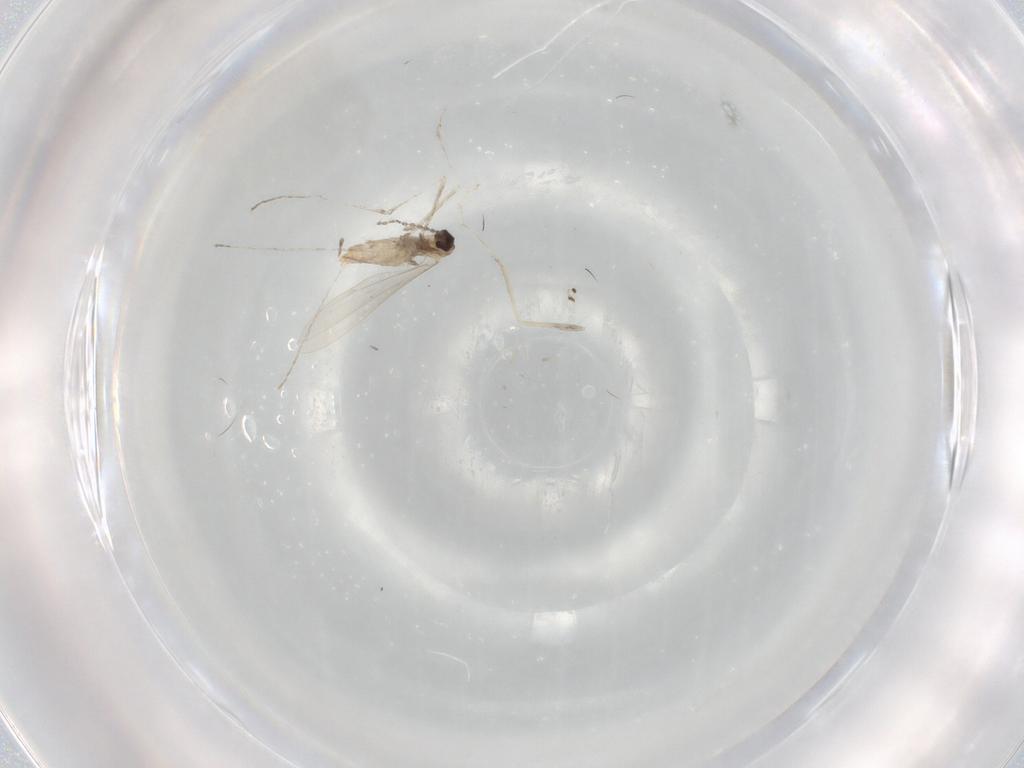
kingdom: Animalia
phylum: Arthropoda
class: Insecta
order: Diptera
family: Cecidomyiidae
